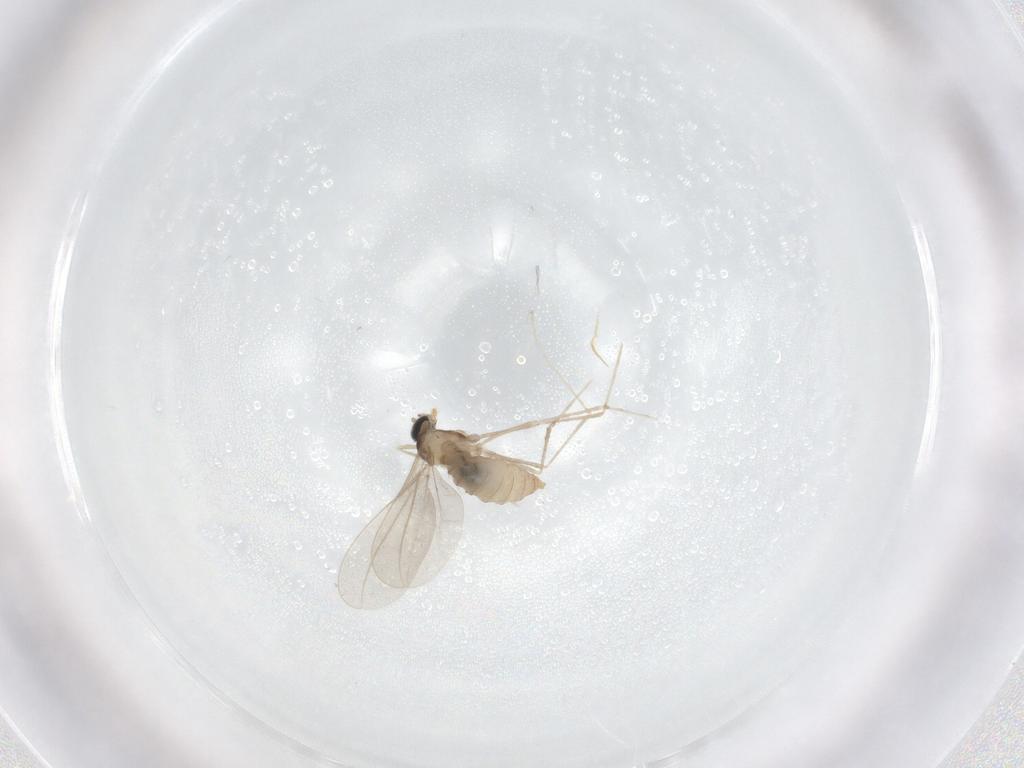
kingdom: Animalia
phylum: Arthropoda
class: Insecta
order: Diptera
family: Cecidomyiidae
